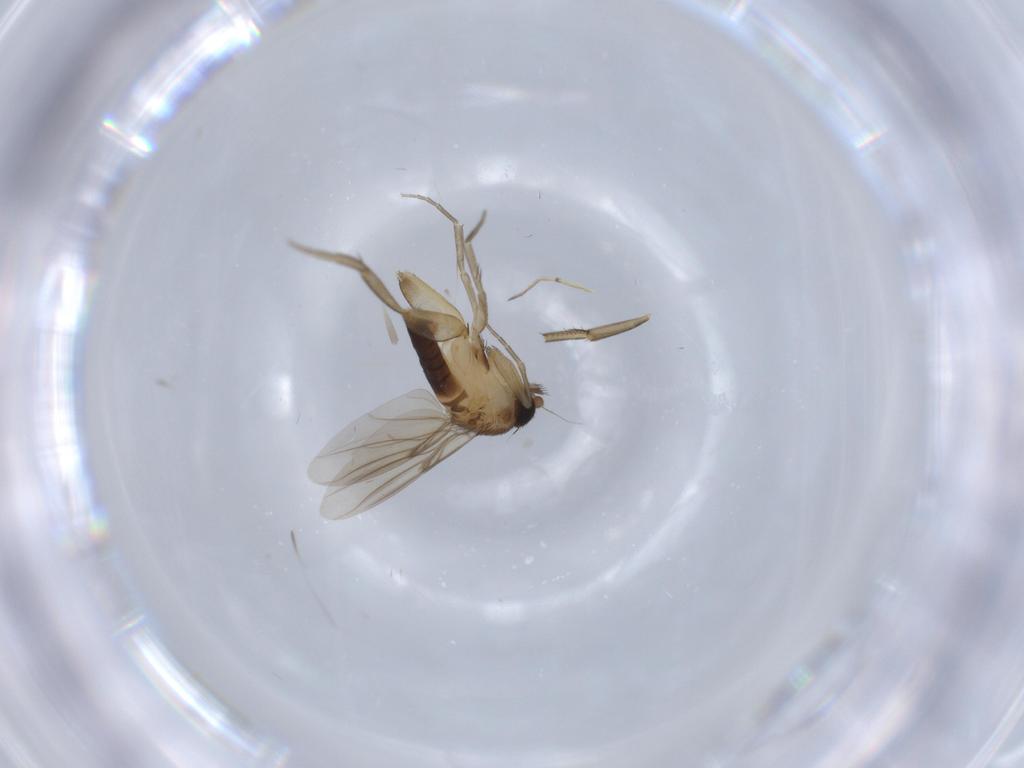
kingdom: Animalia
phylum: Arthropoda
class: Insecta
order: Diptera
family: Phoridae
